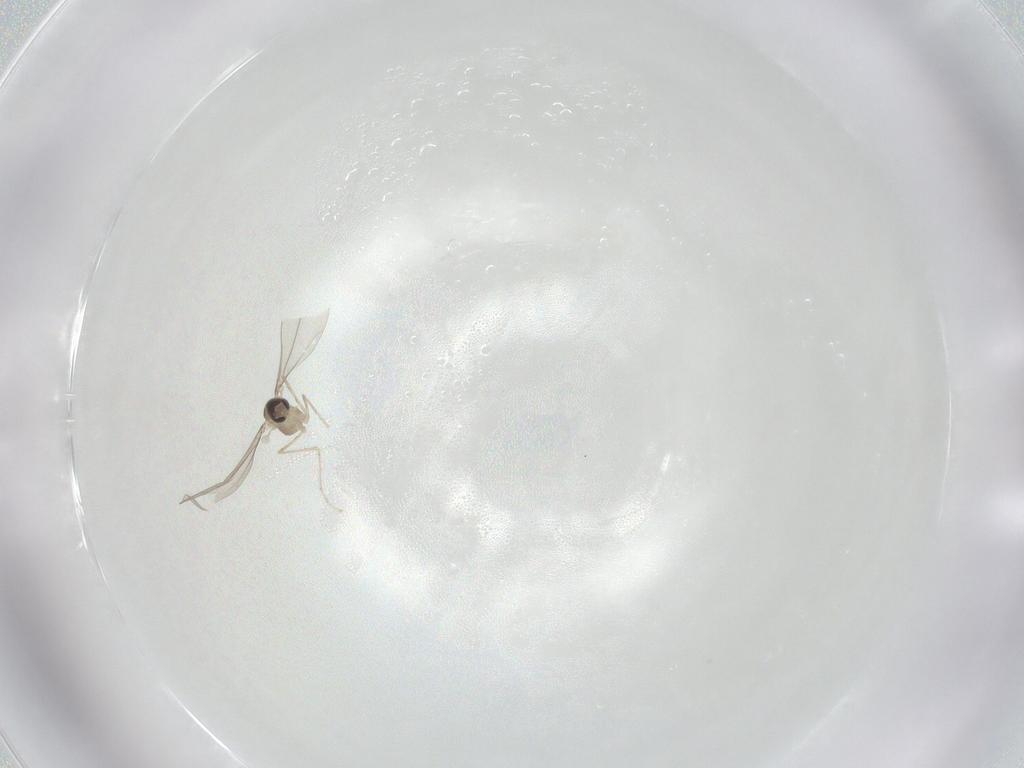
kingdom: Animalia
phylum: Arthropoda
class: Insecta
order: Diptera
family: Cecidomyiidae
